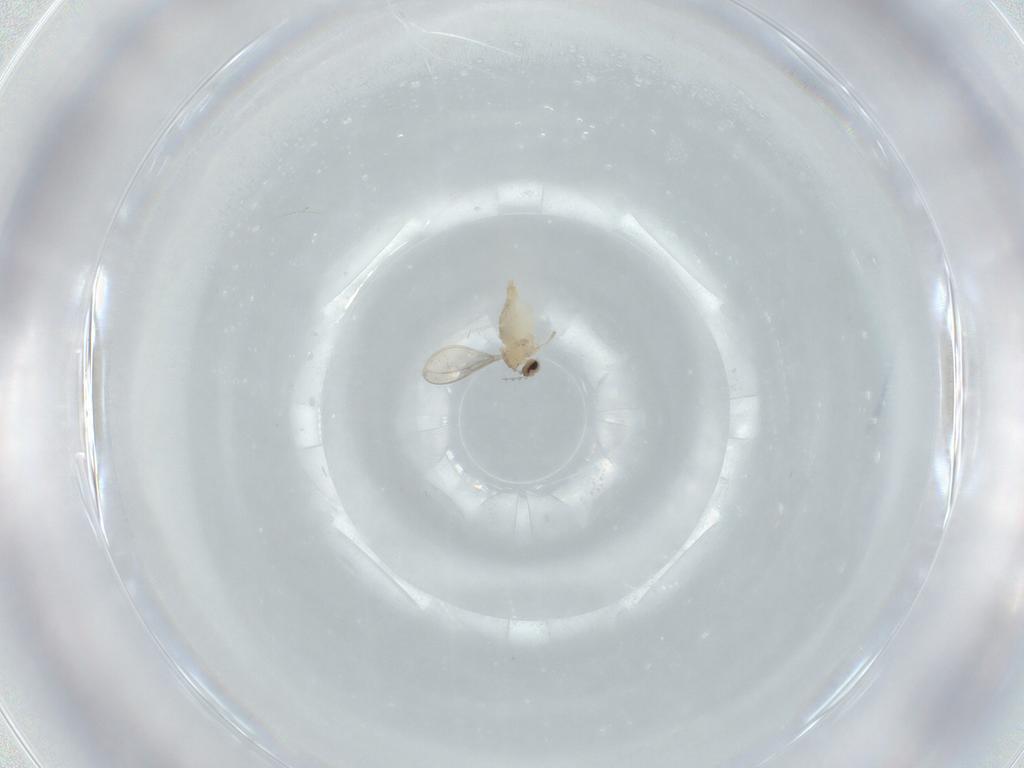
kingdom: Animalia
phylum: Arthropoda
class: Insecta
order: Diptera
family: Cecidomyiidae
